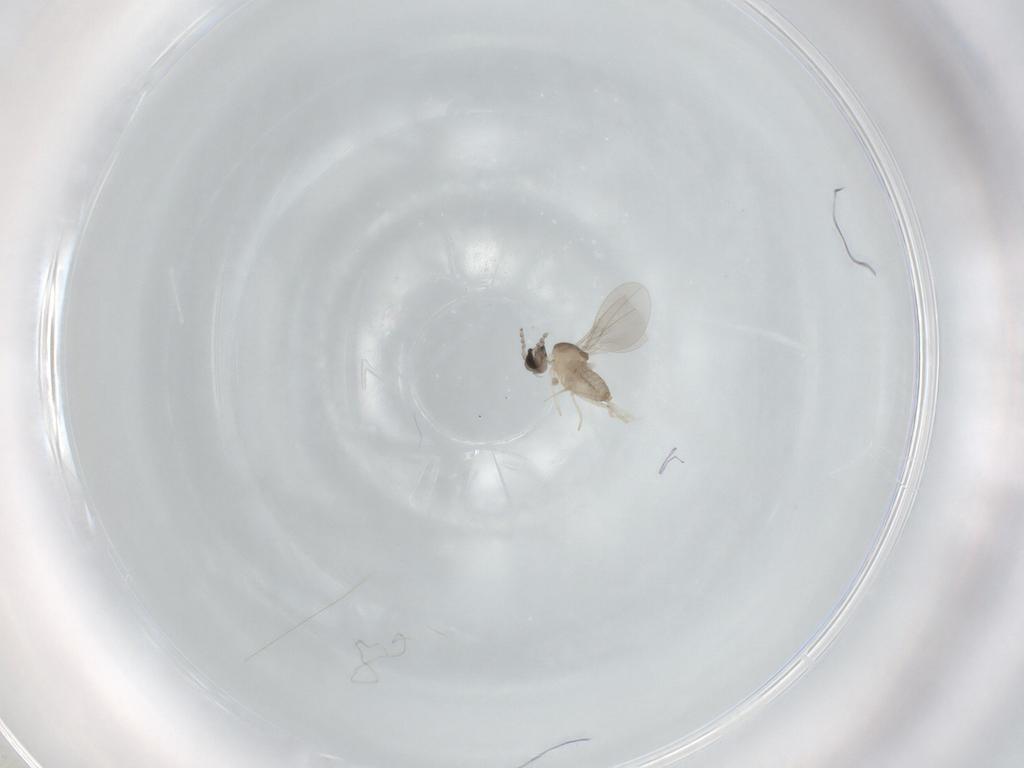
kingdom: Animalia
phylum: Arthropoda
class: Insecta
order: Diptera
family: Cecidomyiidae
